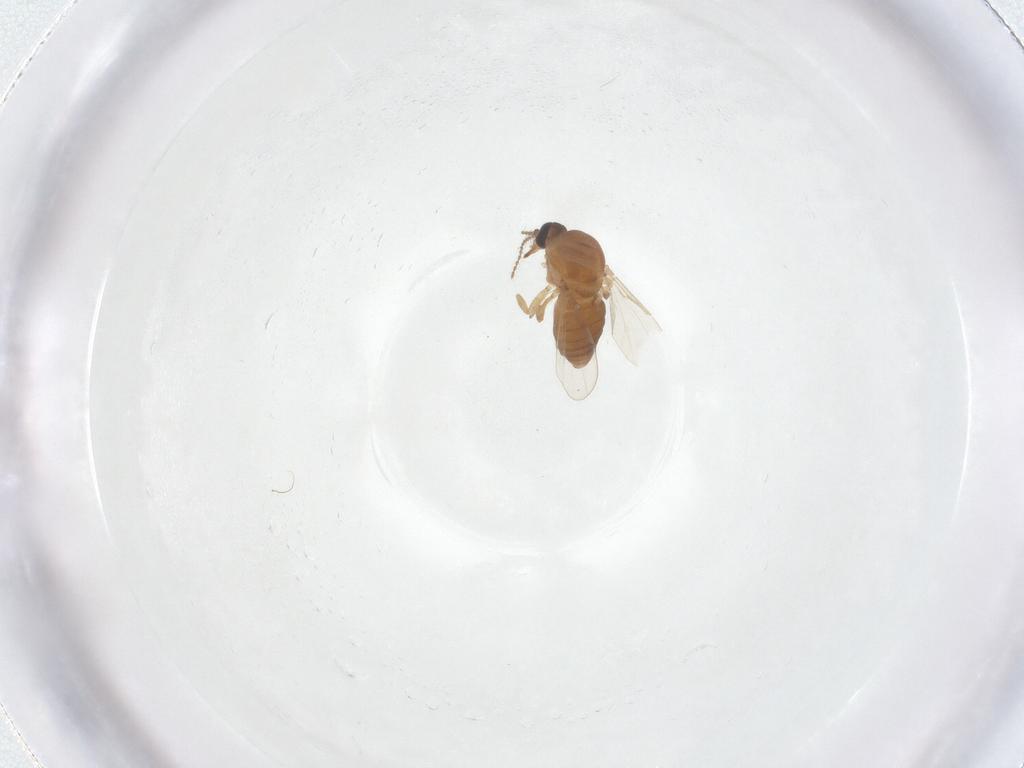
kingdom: Animalia
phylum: Arthropoda
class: Insecta
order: Diptera
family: Ceratopogonidae
